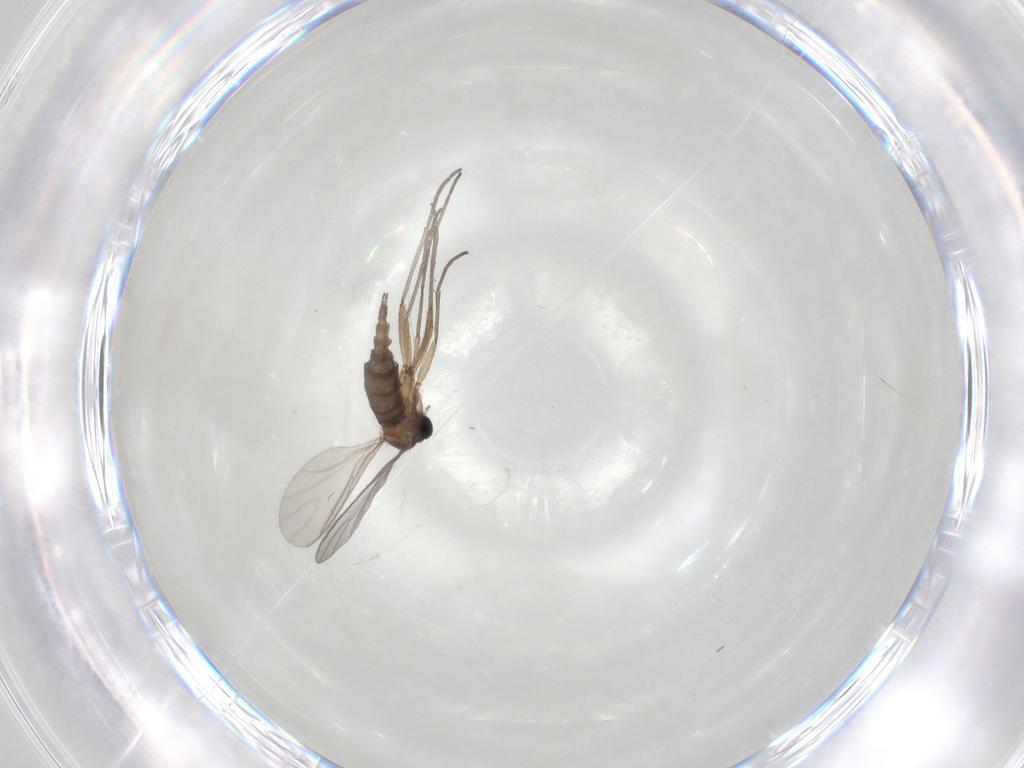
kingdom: Animalia
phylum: Arthropoda
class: Insecta
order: Diptera
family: Sciaridae
